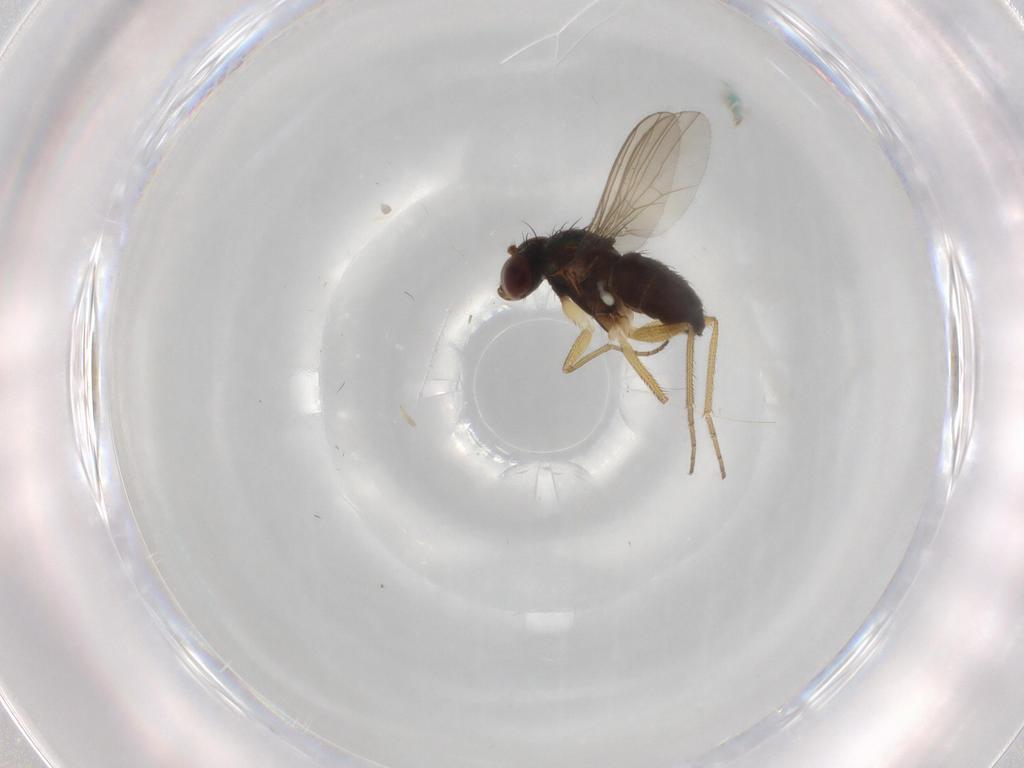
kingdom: Animalia
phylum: Arthropoda
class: Insecta
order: Diptera
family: Dolichopodidae
